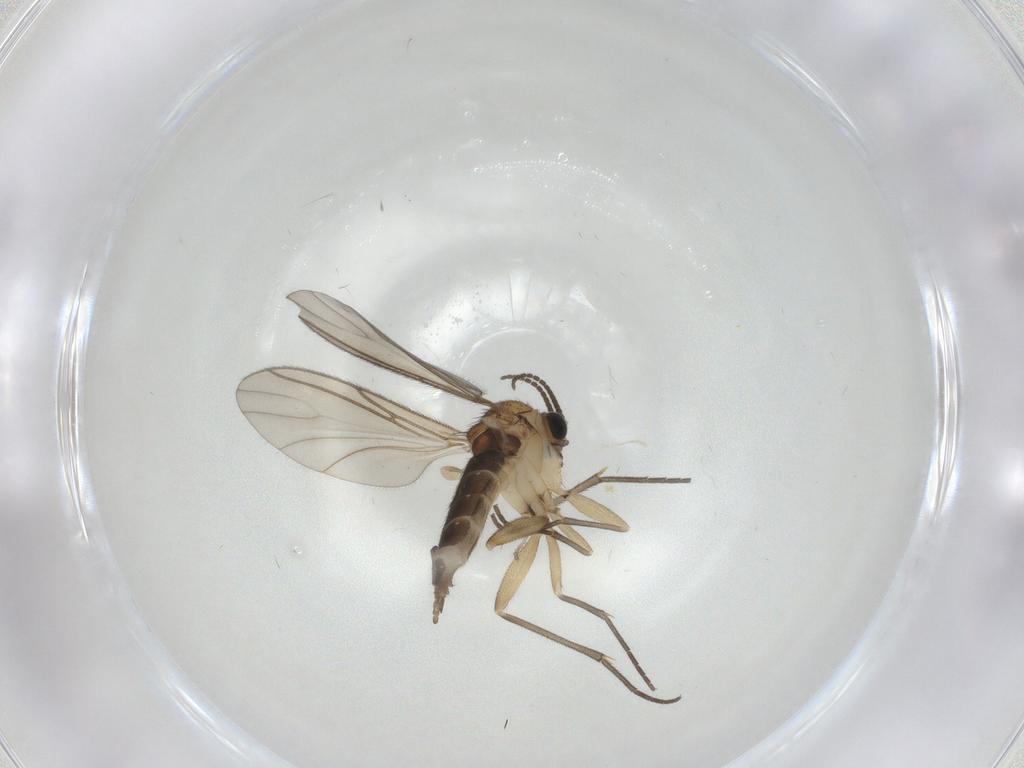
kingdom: Animalia
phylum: Arthropoda
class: Insecta
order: Diptera
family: Sciaridae
